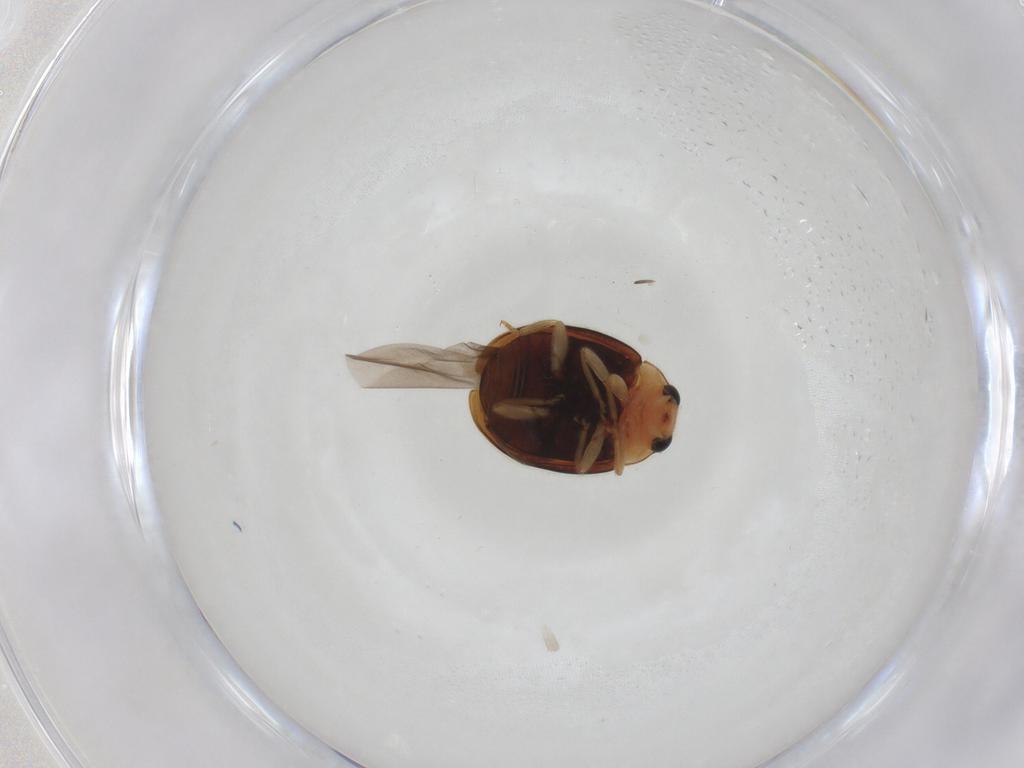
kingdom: Animalia
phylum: Arthropoda
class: Insecta
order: Coleoptera
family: Coccinellidae
